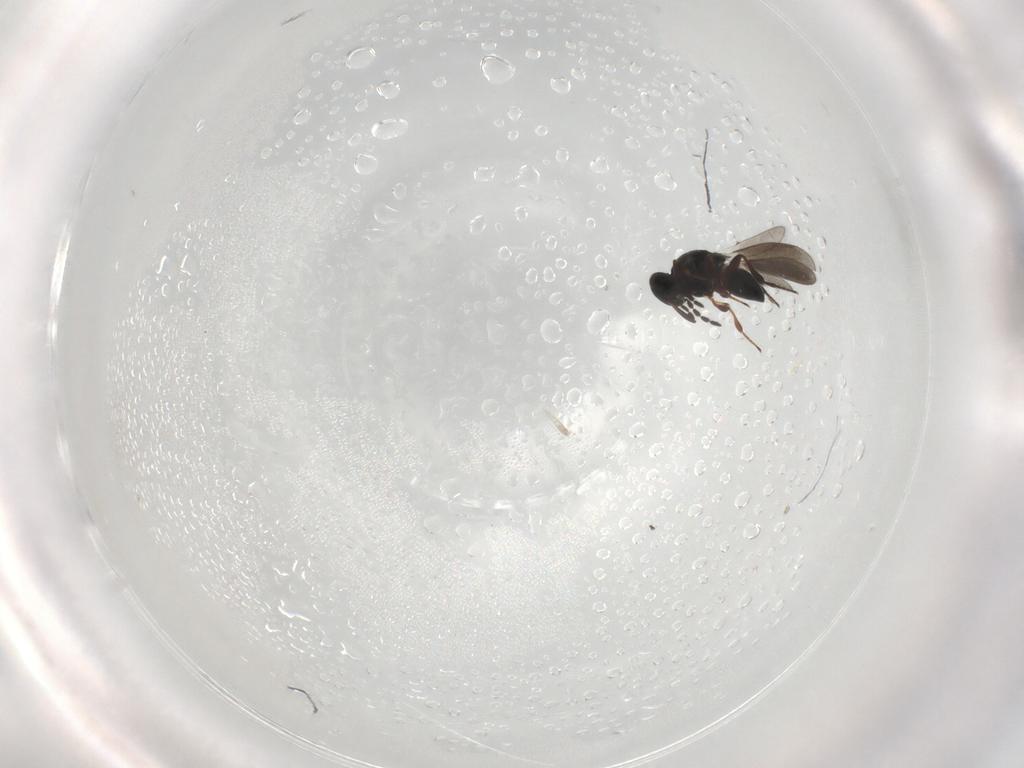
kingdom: Animalia
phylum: Arthropoda
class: Insecta
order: Hymenoptera
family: Platygastridae
